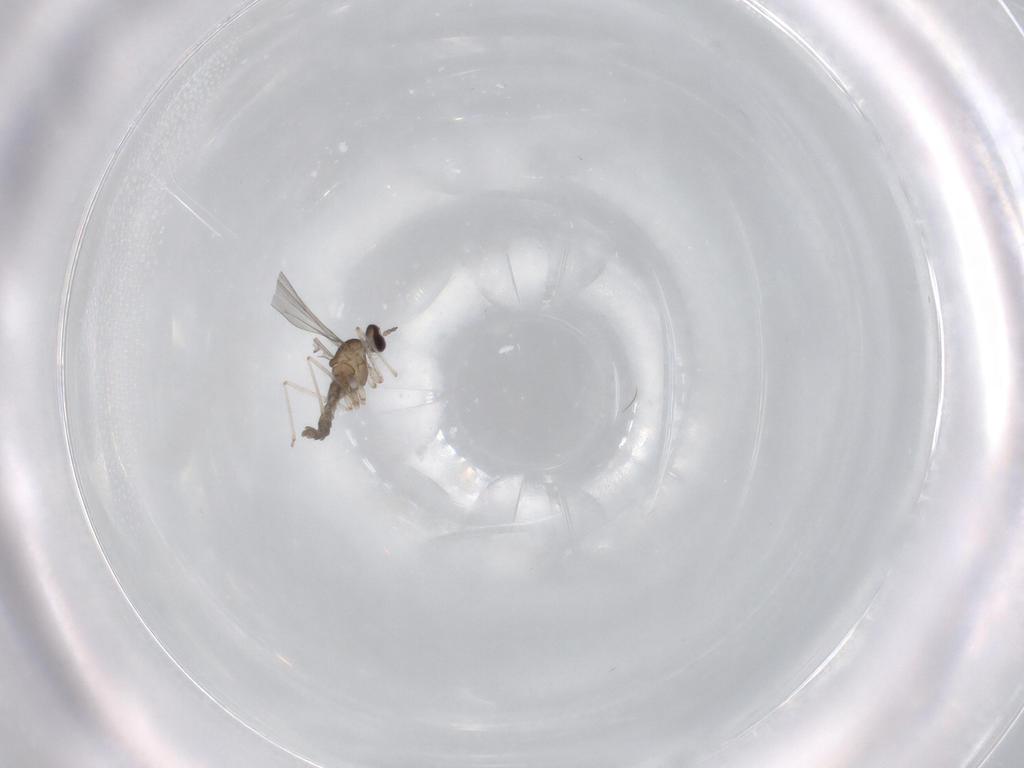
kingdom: Animalia
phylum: Arthropoda
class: Insecta
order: Diptera
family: Cecidomyiidae
